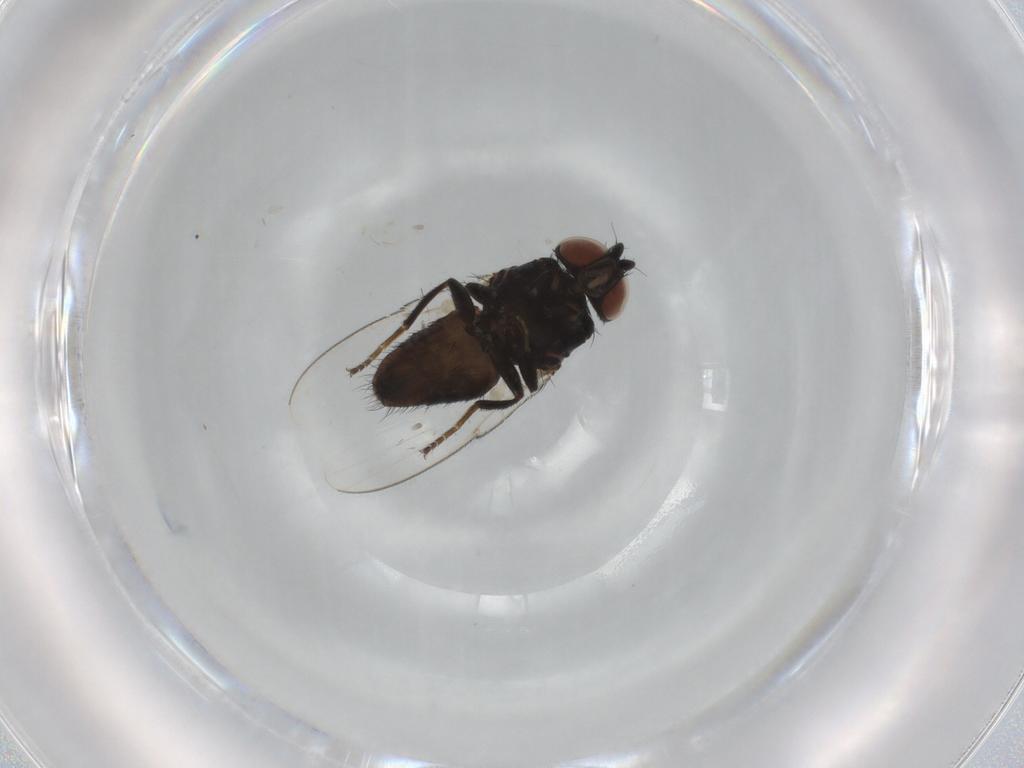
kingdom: Animalia
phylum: Arthropoda
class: Insecta
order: Diptera
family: Milichiidae
